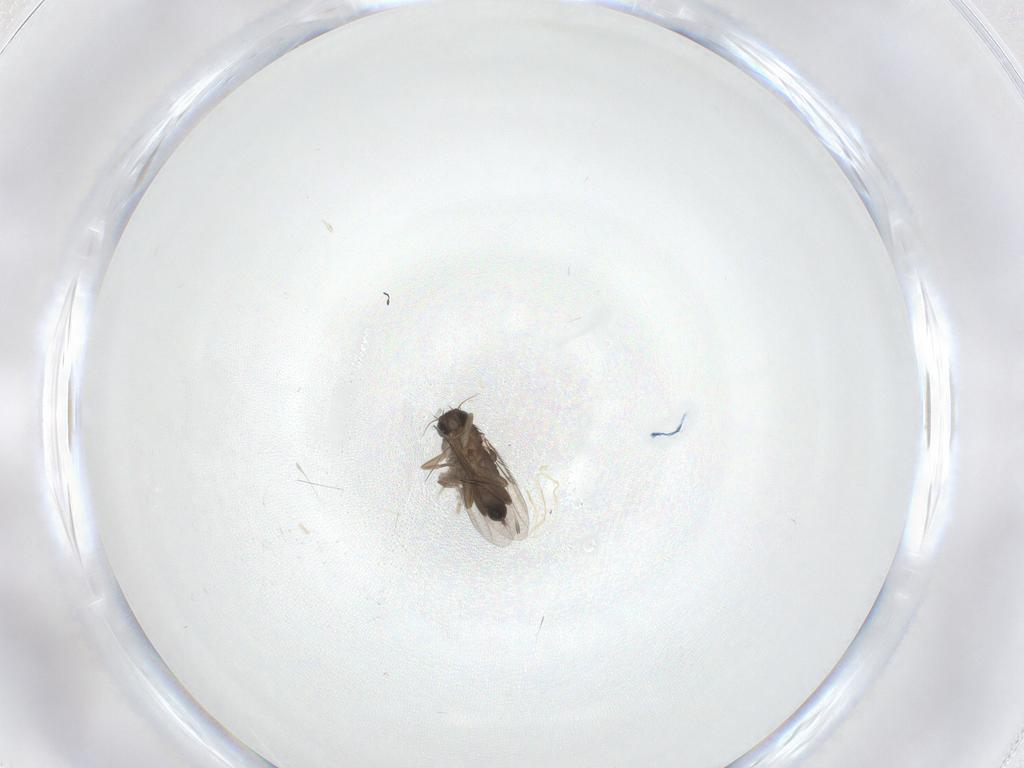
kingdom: Animalia
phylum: Arthropoda
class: Insecta
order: Diptera
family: Phoridae
